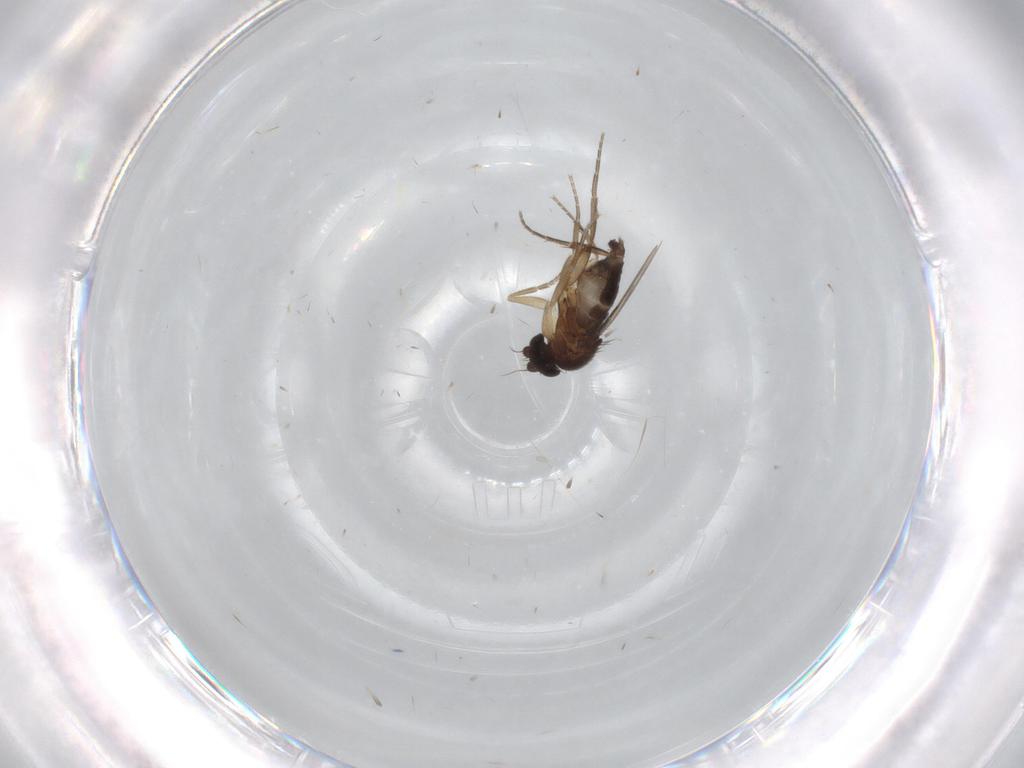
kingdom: Animalia
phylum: Arthropoda
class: Insecta
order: Diptera
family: Phoridae
